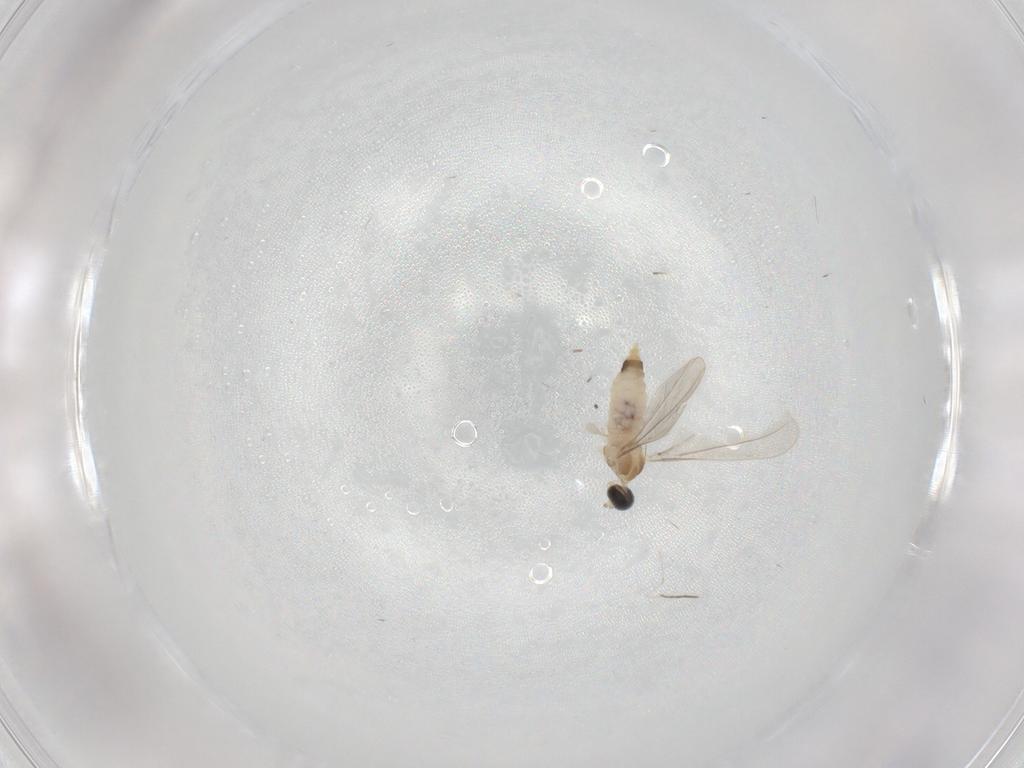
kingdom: Animalia
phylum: Arthropoda
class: Insecta
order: Diptera
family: Cecidomyiidae
